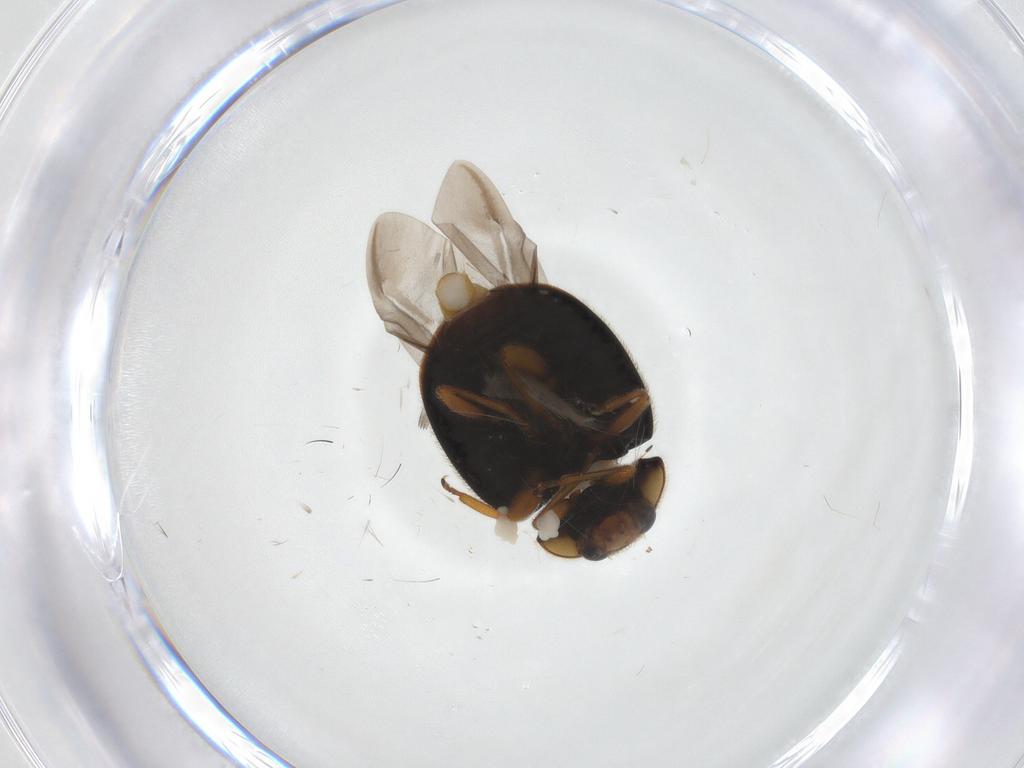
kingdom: Animalia
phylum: Arthropoda
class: Insecta
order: Coleoptera
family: Coccinellidae
